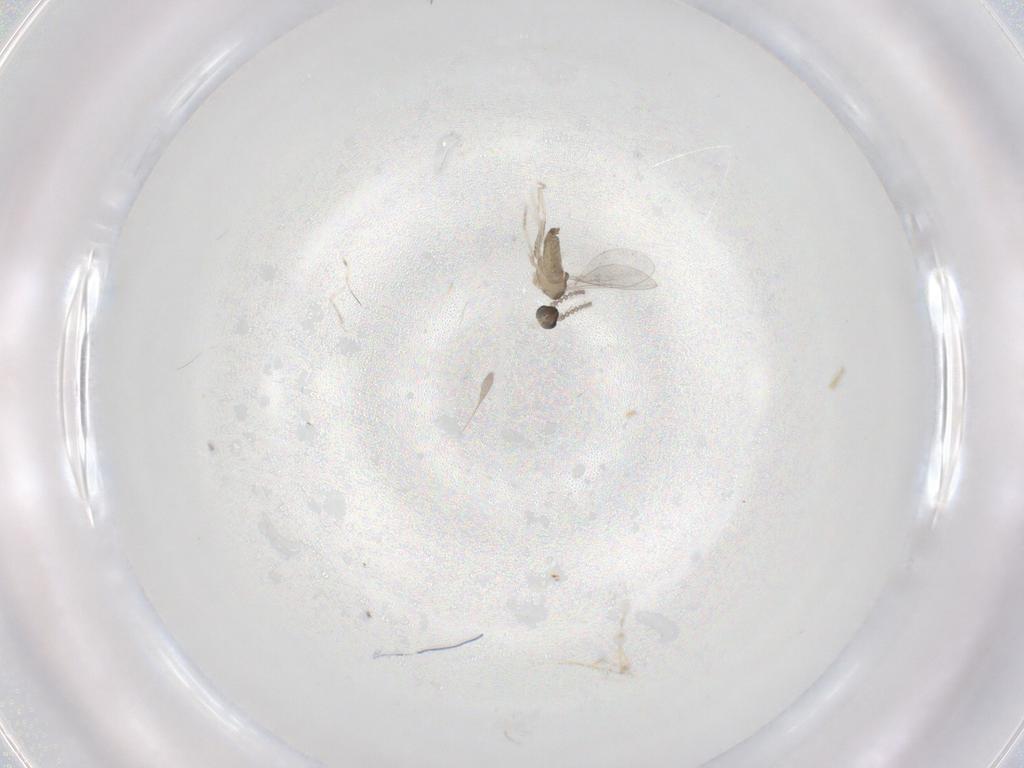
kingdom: Animalia
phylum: Arthropoda
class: Insecta
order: Diptera
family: Cecidomyiidae
